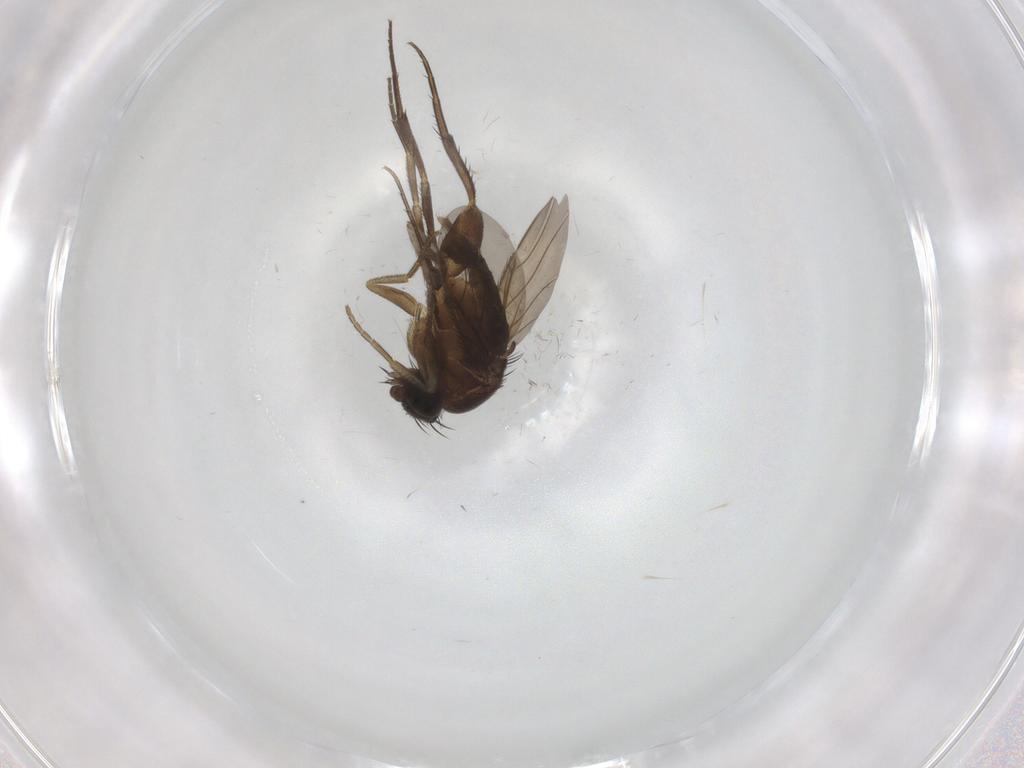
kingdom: Animalia
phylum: Arthropoda
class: Insecta
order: Diptera
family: Phoridae
